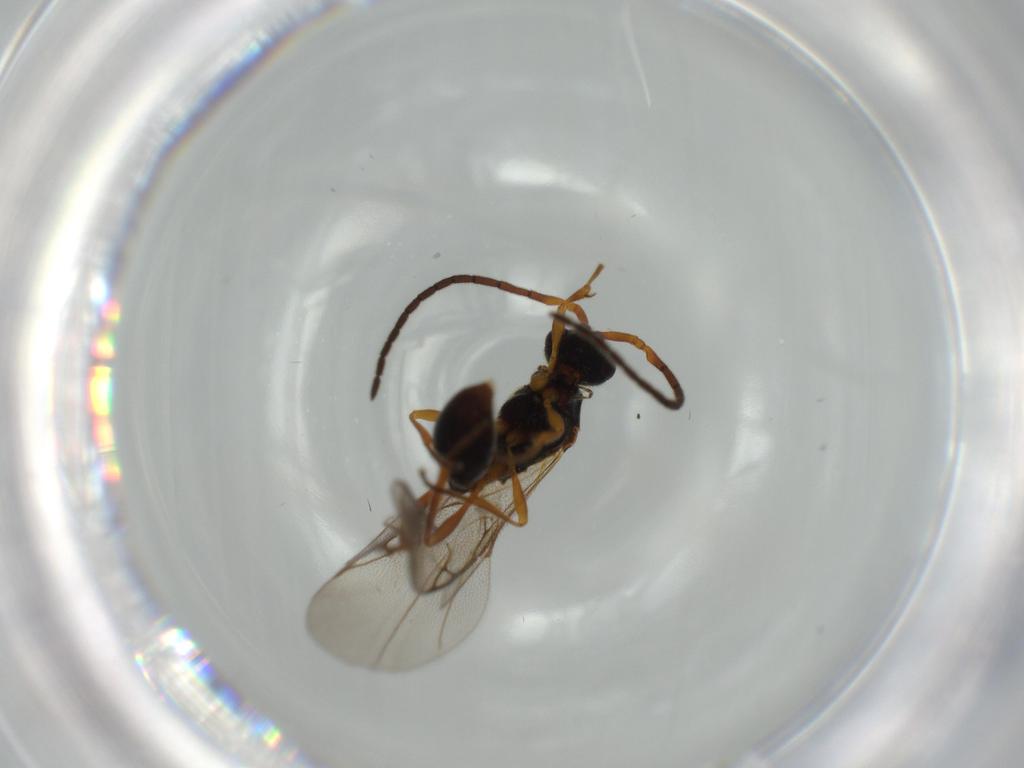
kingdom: Animalia
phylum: Arthropoda
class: Insecta
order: Hymenoptera
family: Diapriidae
